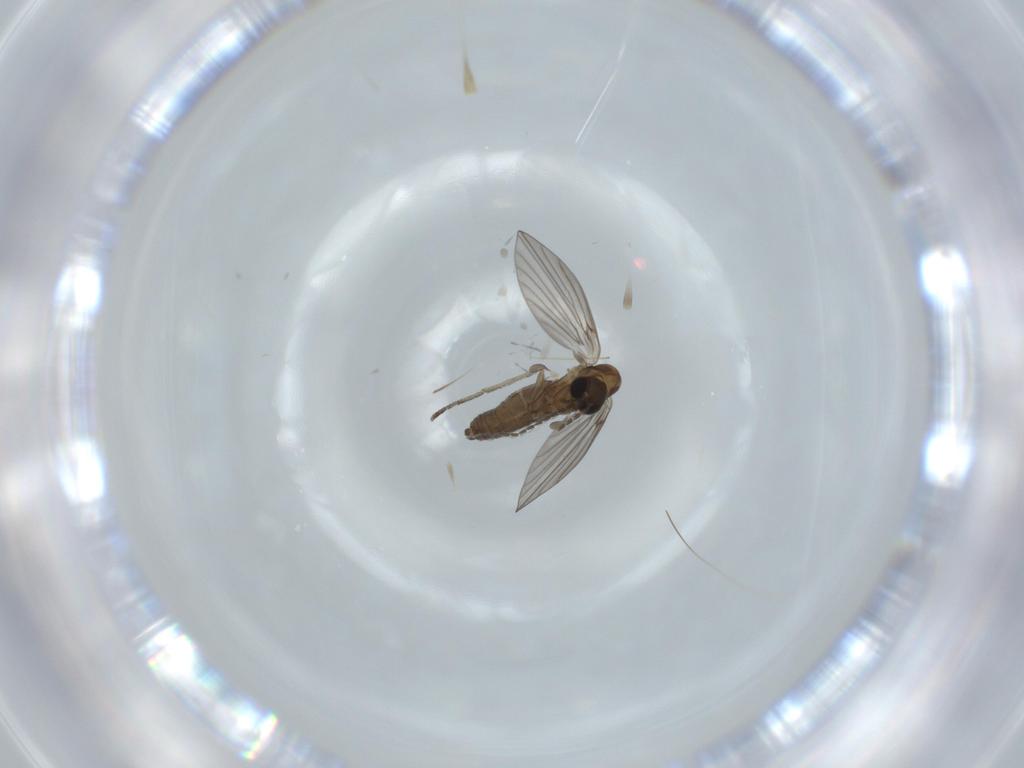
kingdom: Animalia
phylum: Arthropoda
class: Insecta
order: Diptera
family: Psychodidae
